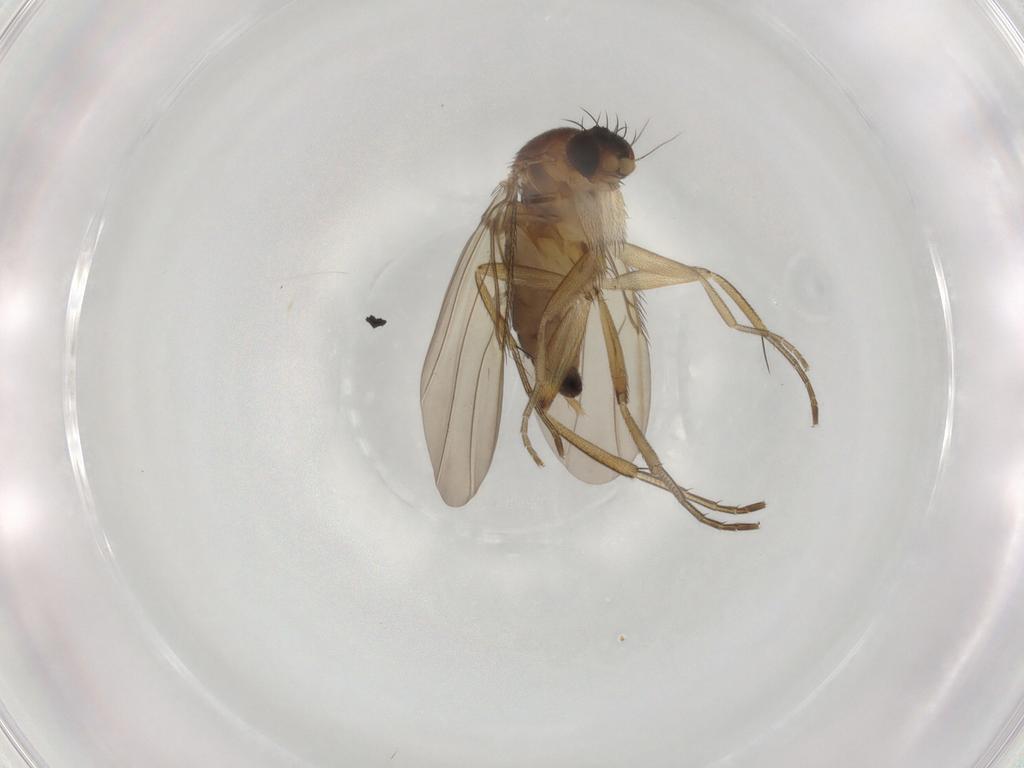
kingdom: Animalia
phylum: Arthropoda
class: Insecta
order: Diptera
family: Phoridae
